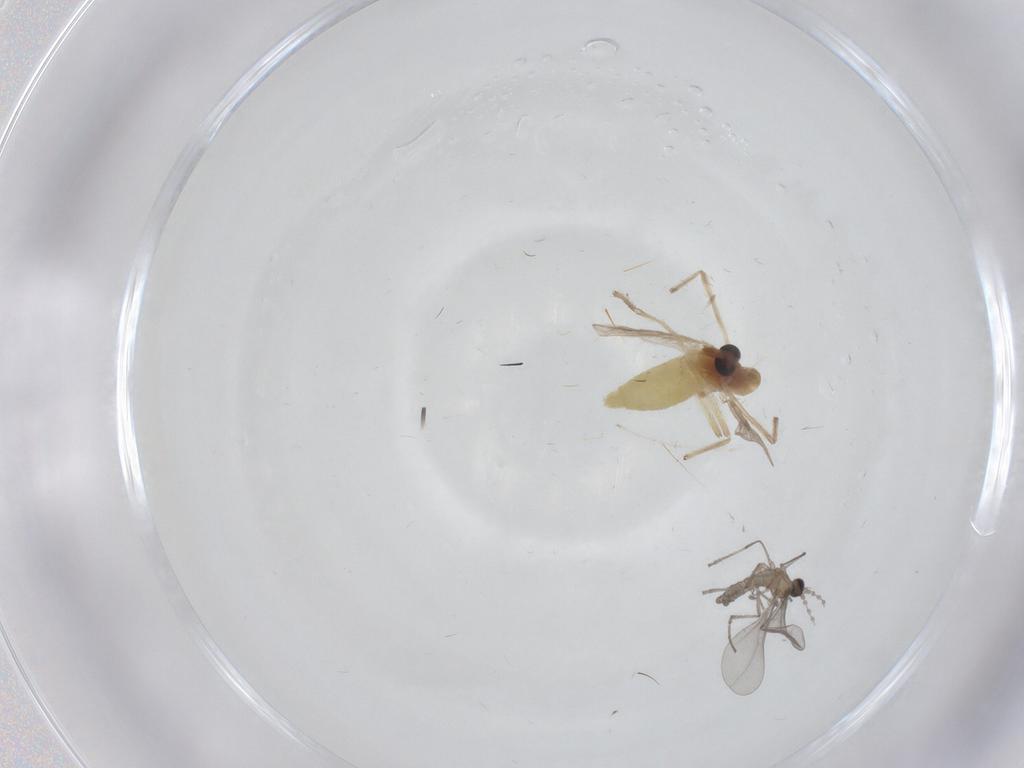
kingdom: Animalia
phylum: Arthropoda
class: Insecta
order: Diptera
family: Chironomidae
